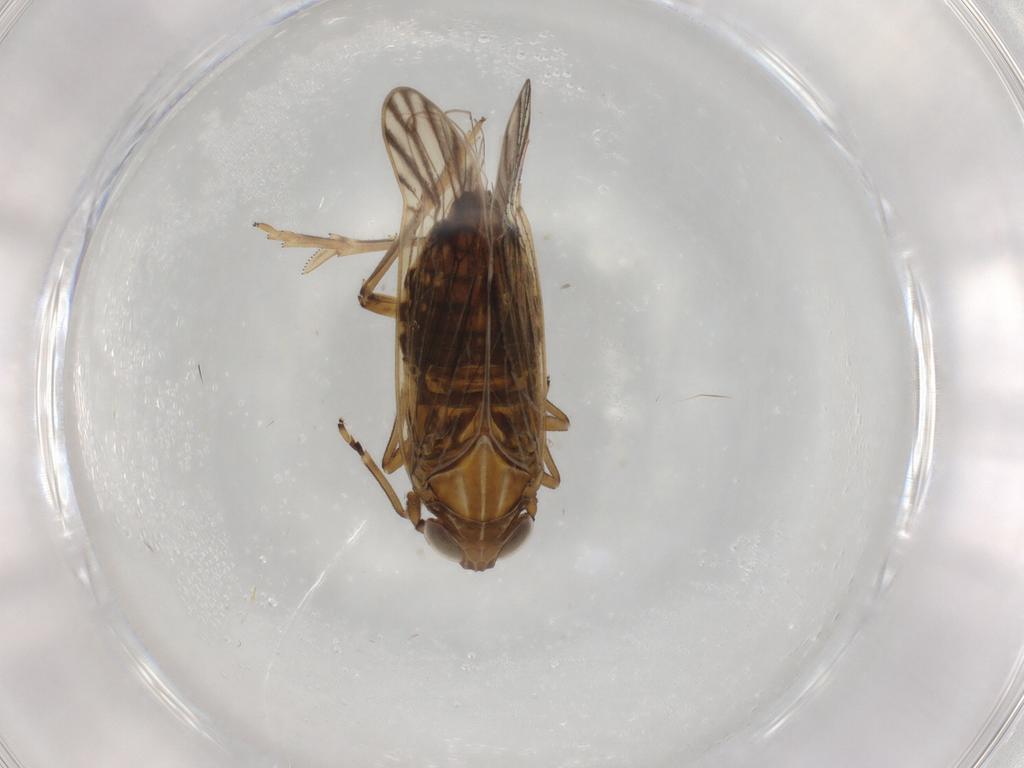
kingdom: Animalia
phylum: Arthropoda
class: Insecta
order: Hemiptera
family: Delphacidae
